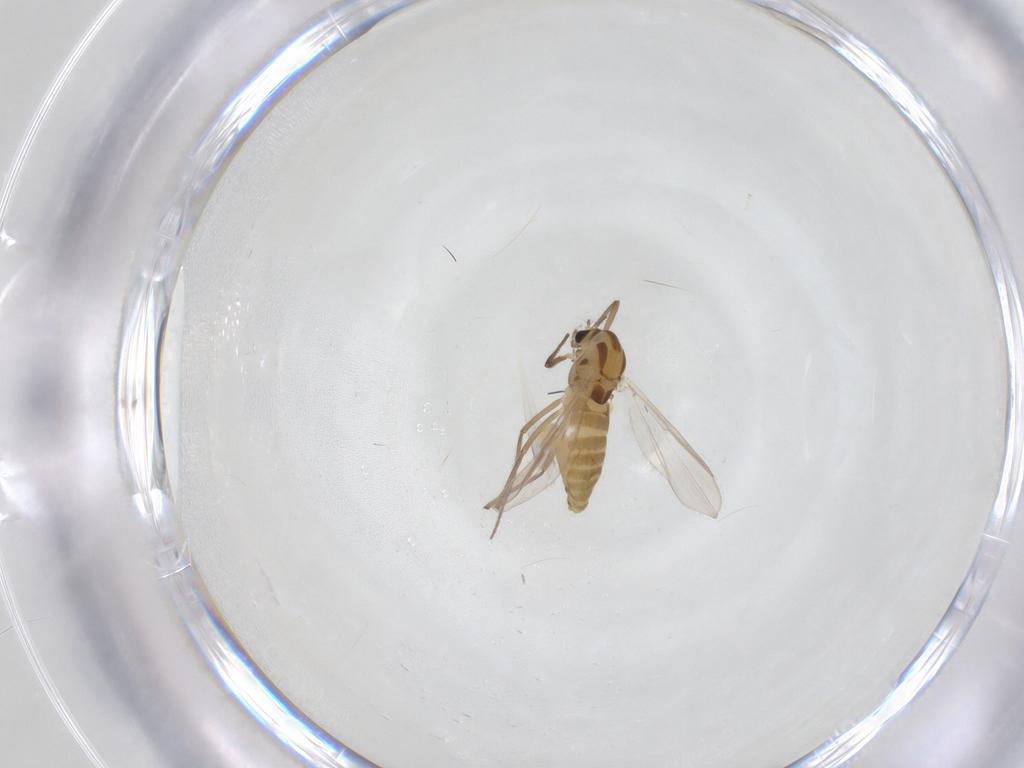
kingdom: Animalia
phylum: Arthropoda
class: Insecta
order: Diptera
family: Chironomidae
